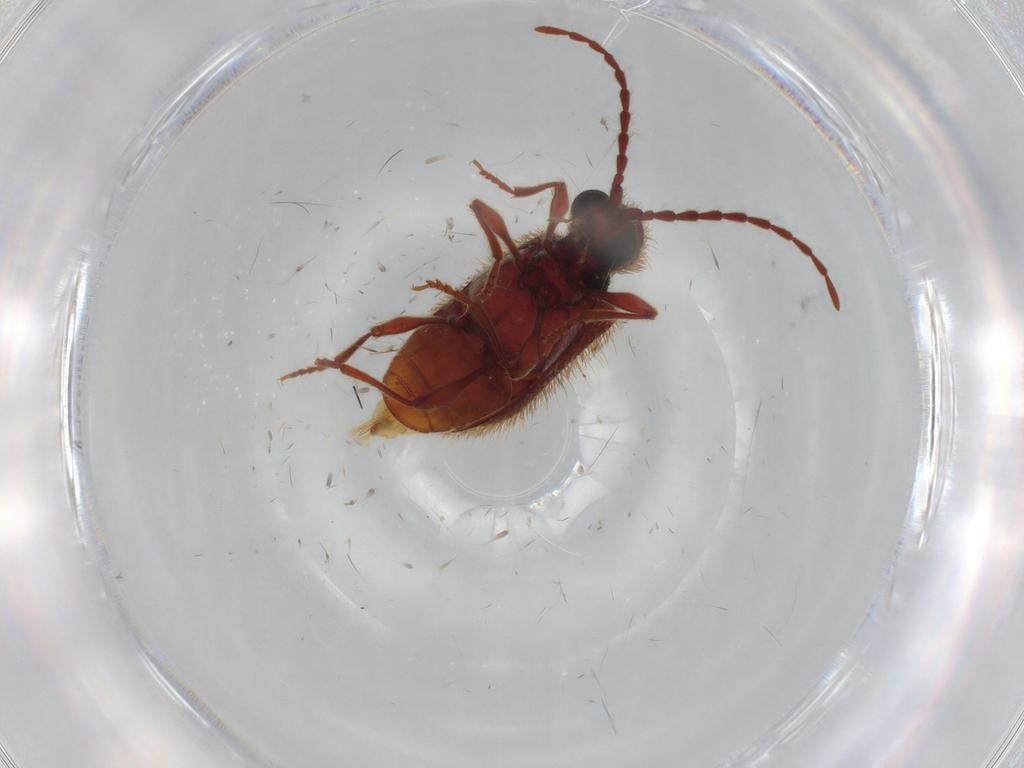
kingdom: Animalia
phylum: Arthropoda
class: Insecta
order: Coleoptera
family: Ptinidae
